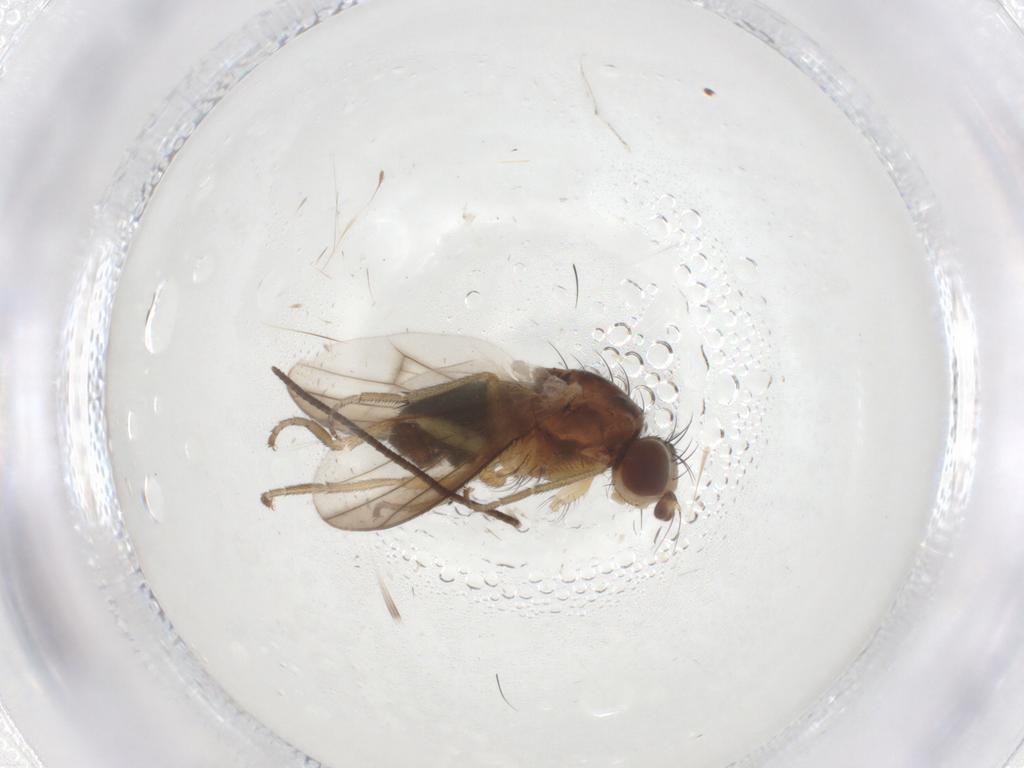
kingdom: Animalia
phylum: Arthropoda
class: Insecta
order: Diptera
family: Heleomyzidae
